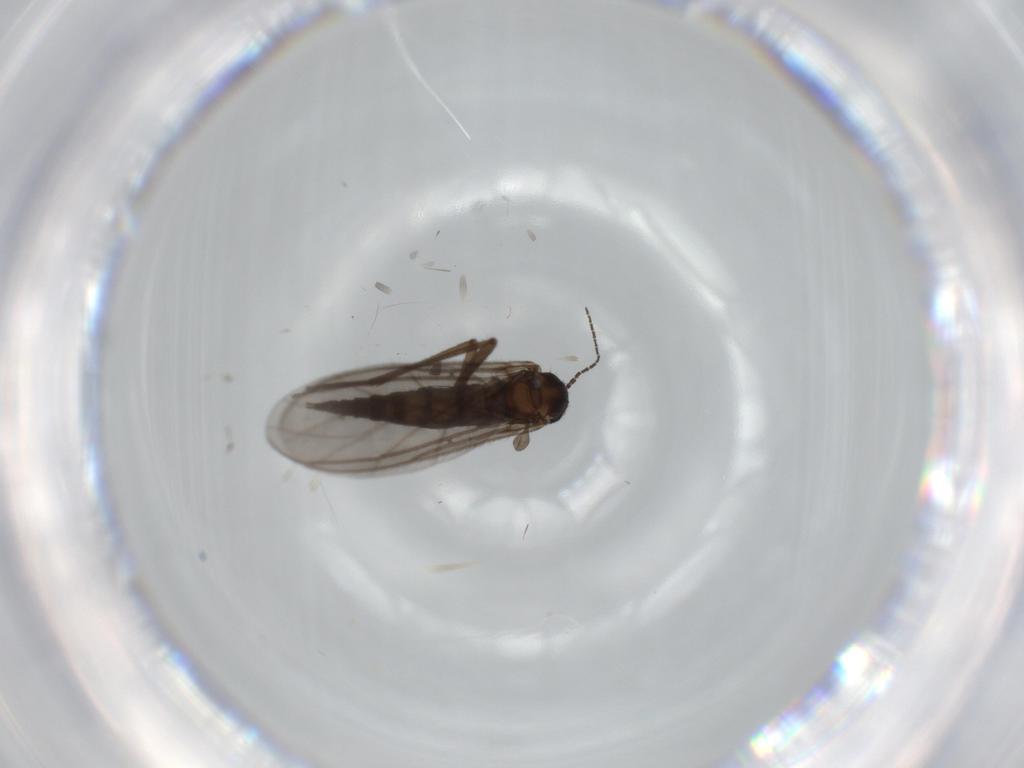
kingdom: Animalia
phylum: Arthropoda
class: Insecta
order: Diptera
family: Sciaridae
